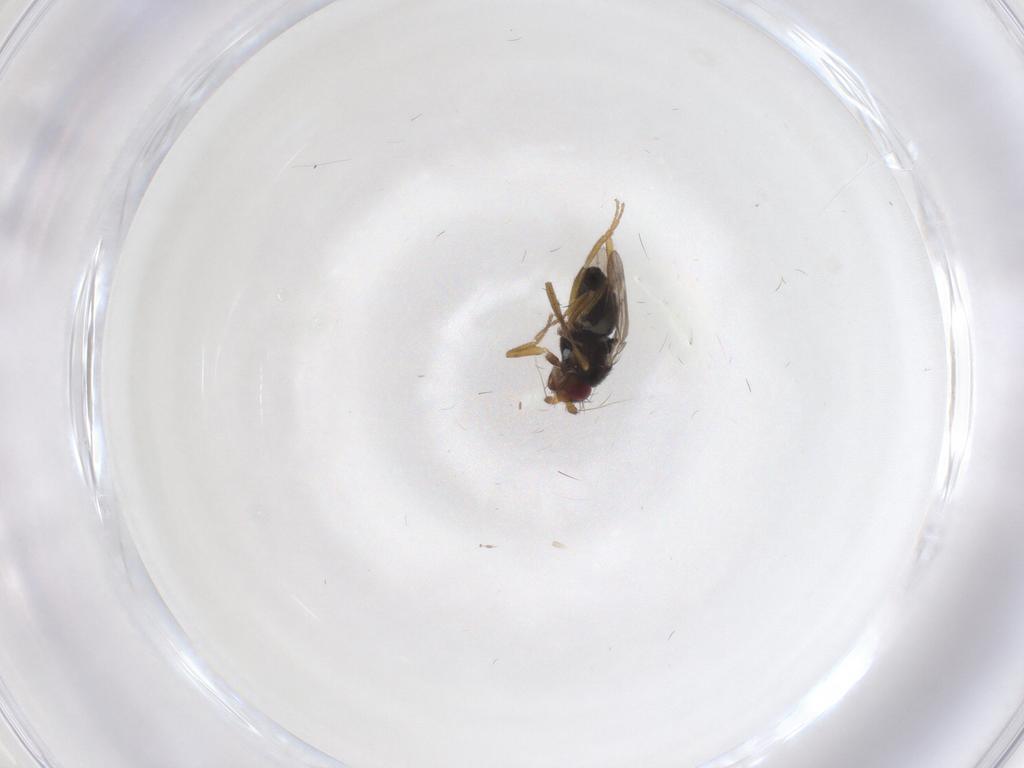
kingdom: Animalia
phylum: Arthropoda
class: Insecta
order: Diptera
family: Sphaeroceridae
